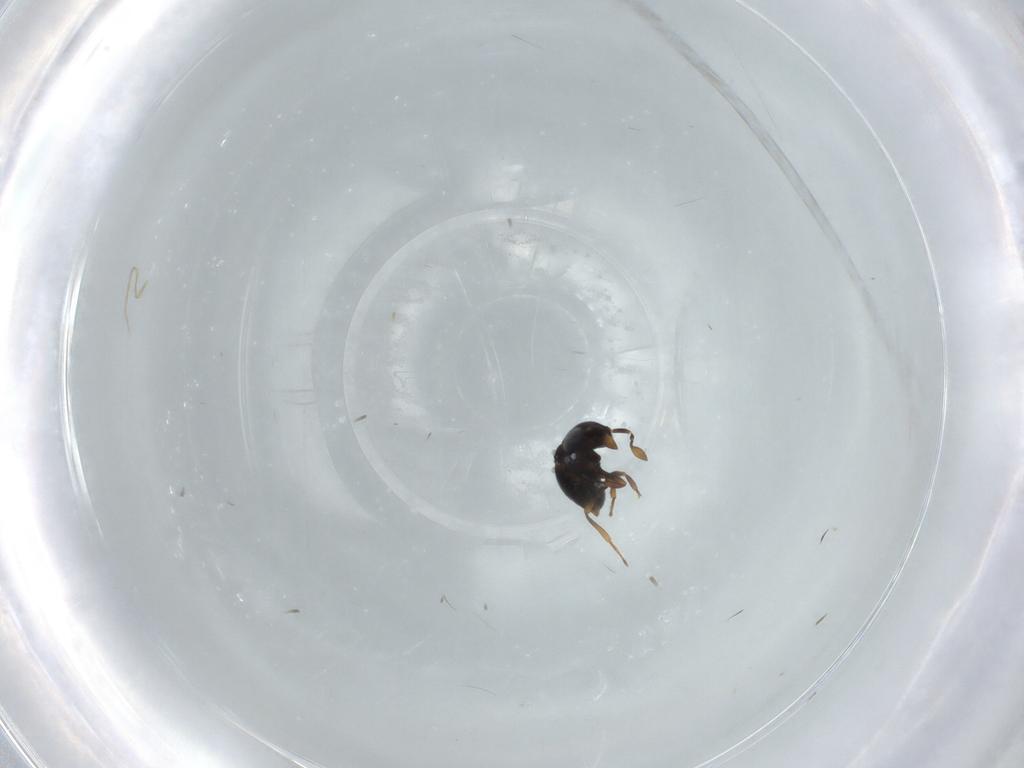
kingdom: Animalia
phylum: Arthropoda
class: Insecta
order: Hymenoptera
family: Scelionidae
